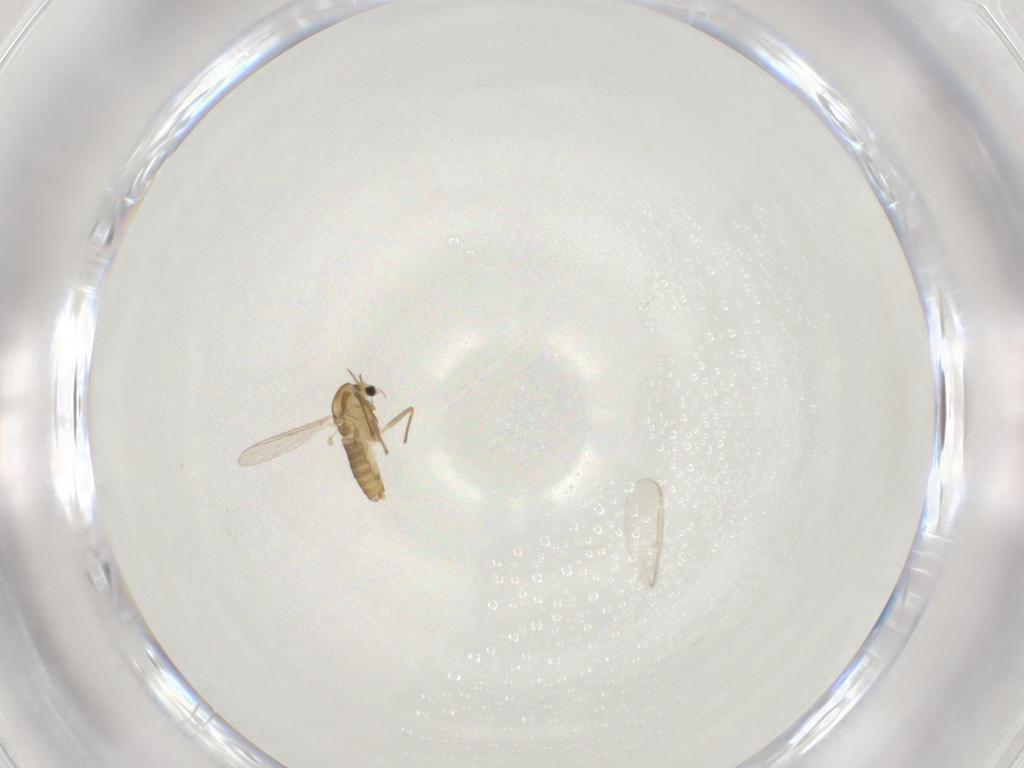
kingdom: Animalia
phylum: Arthropoda
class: Insecta
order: Diptera
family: Chironomidae
